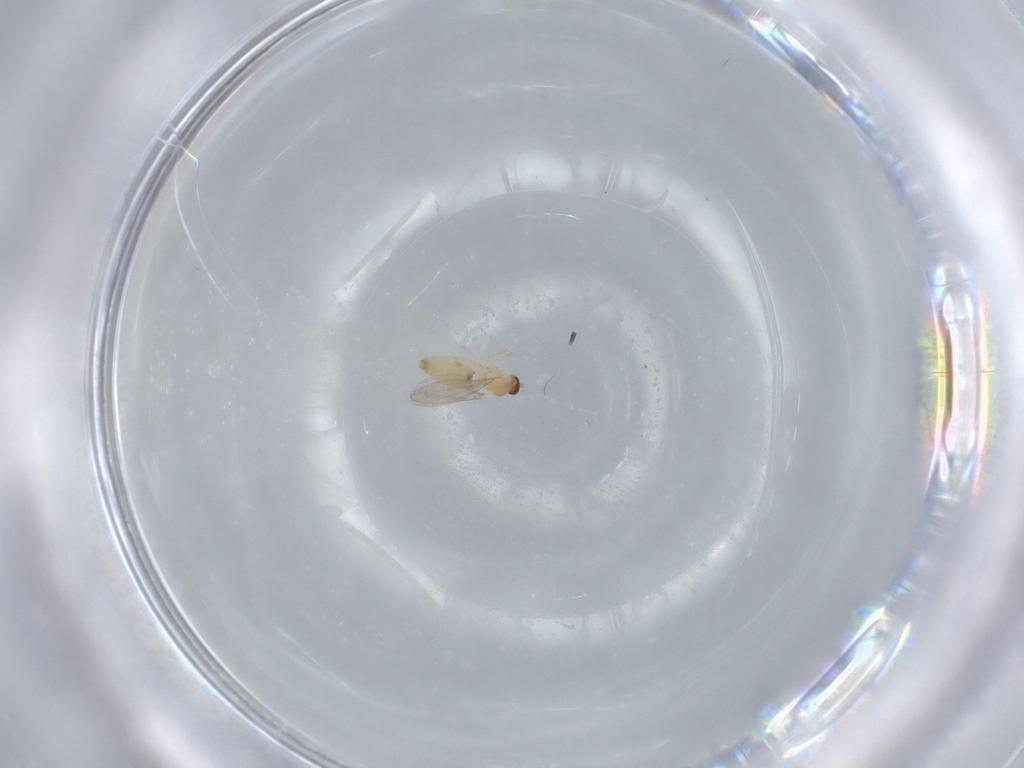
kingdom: Animalia
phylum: Arthropoda
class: Insecta
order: Diptera
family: Cecidomyiidae
